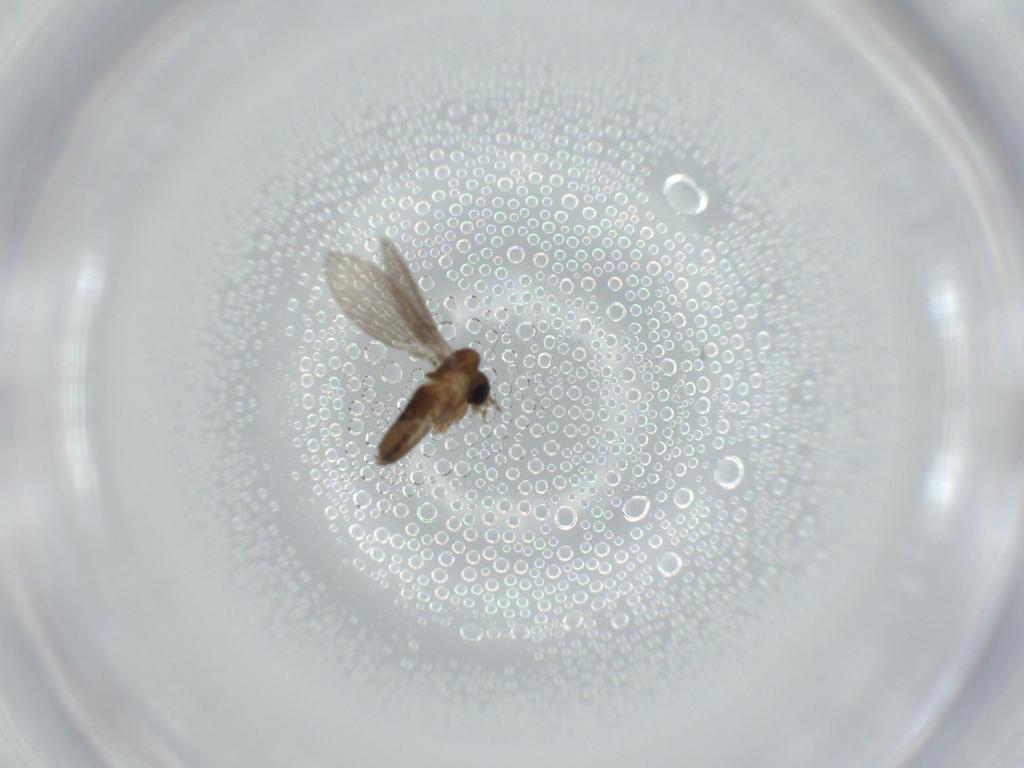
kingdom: Animalia
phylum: Arthropoda
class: Insecta
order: Diptera
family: Psychodidae
